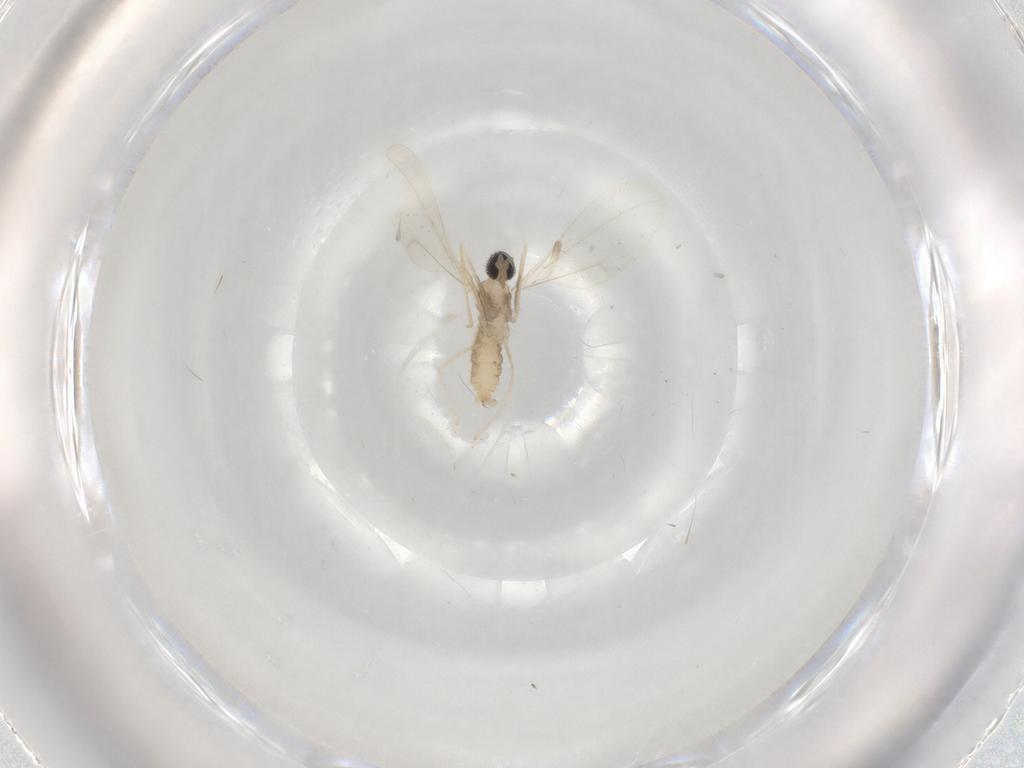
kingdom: Animalia
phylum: Arthropoda
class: Insecta
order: Diptera
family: Cecidomyiidae
